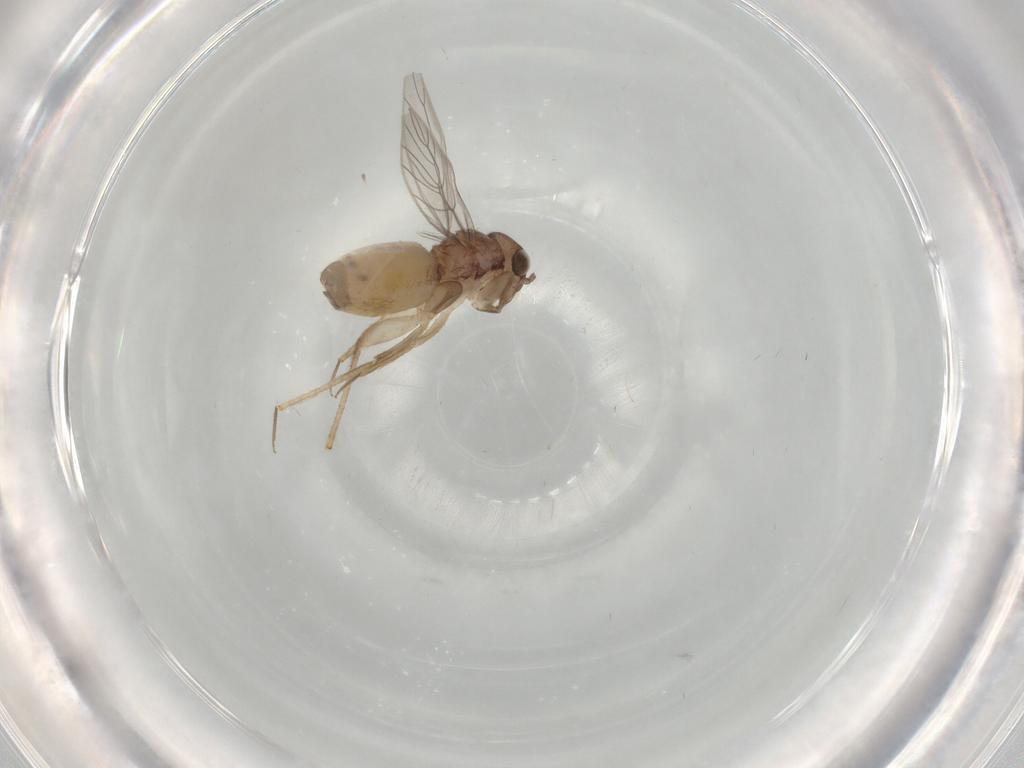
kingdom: Animalia
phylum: Arthropoda
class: Insecta
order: Psocodea
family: Lepidopsocidae
